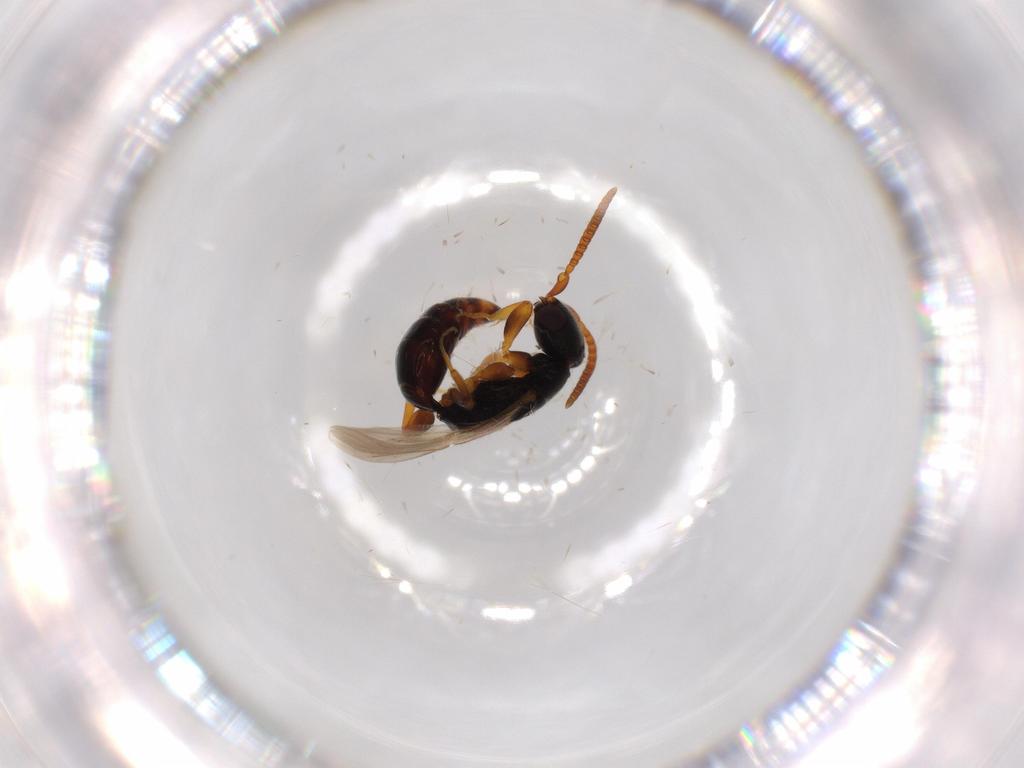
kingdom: Animalia
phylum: Arthropoda
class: Insecta
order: Hymenoptera
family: Bethylidae
